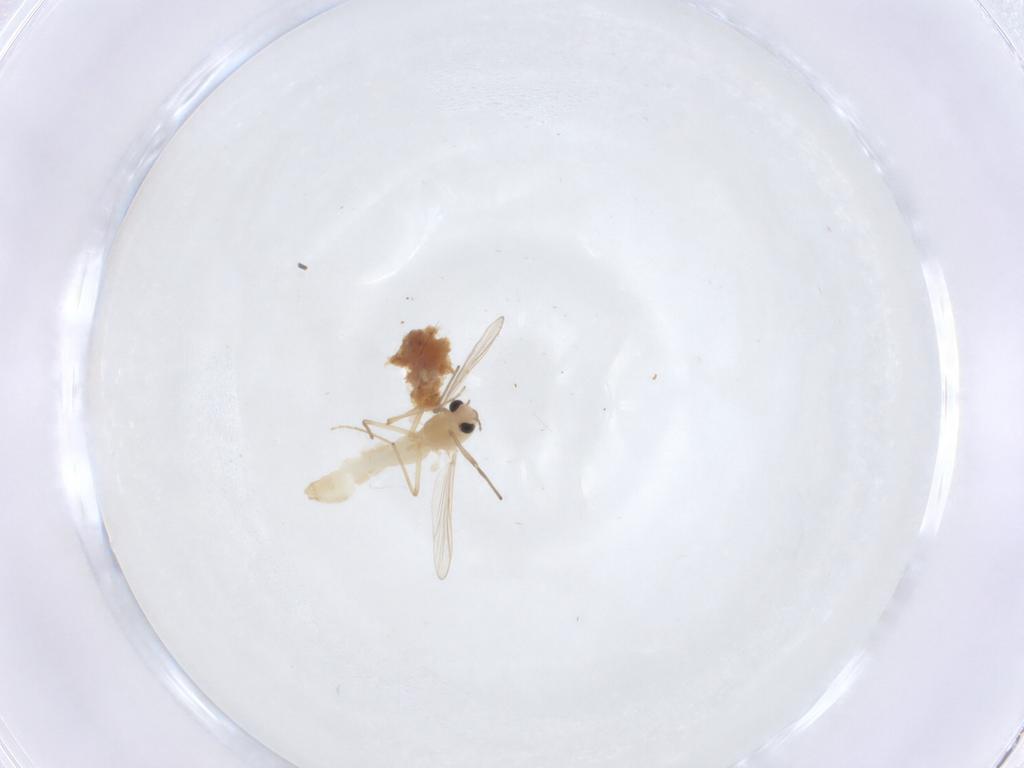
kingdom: Animalia
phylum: Arthropoda
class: Insecta
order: Diptera
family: Chironomidae
